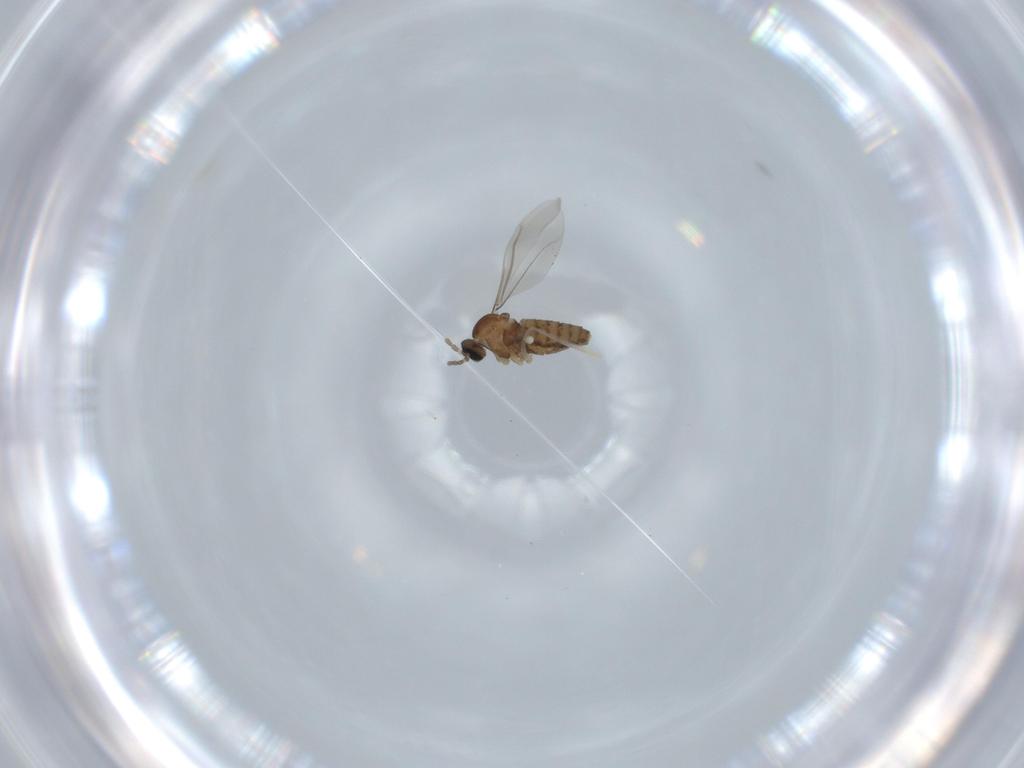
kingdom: Animalia
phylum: Arthropoda
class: Insecta
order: Diptera
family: Cecidomyiidae
